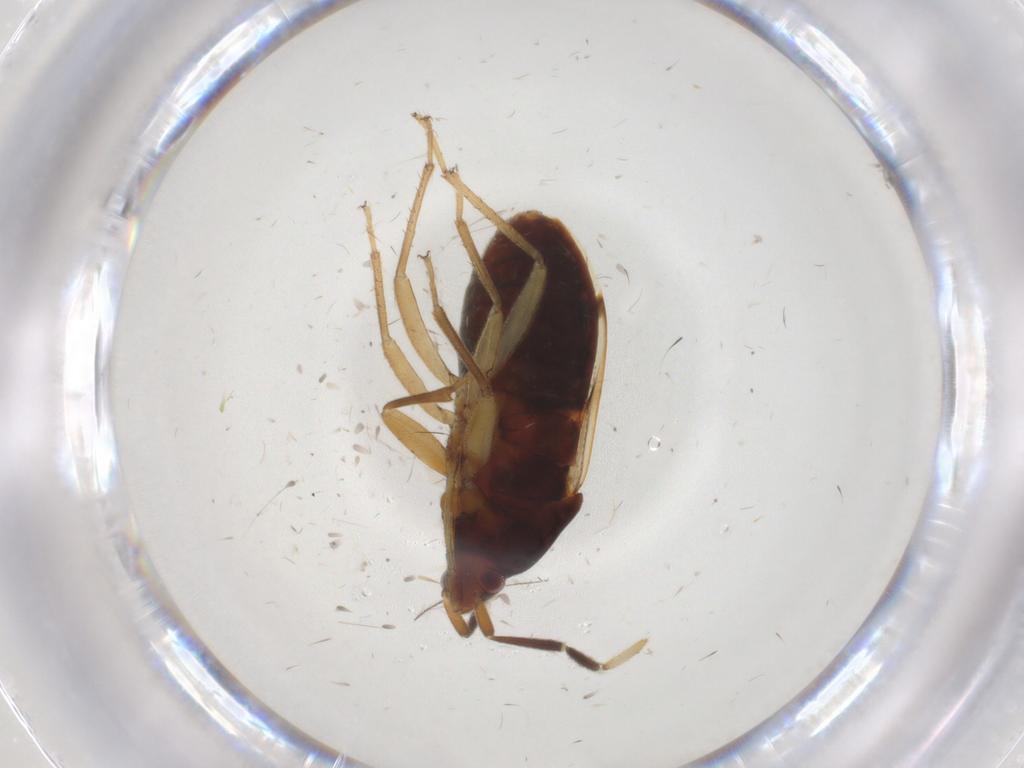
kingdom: Animalia
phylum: Arthropoda
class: Insecta
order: Hemiptera
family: Rhyparochromidae
